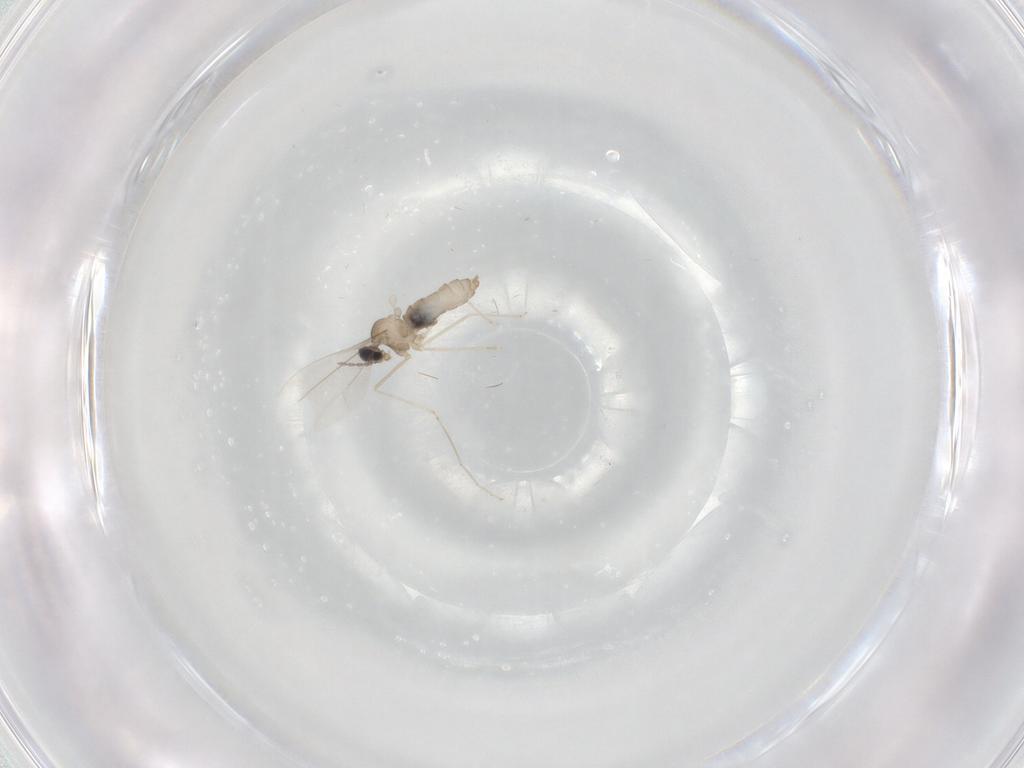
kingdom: Animalia
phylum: Arthropoda
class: Insecta
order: Diptera
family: Cecidomyiidae
